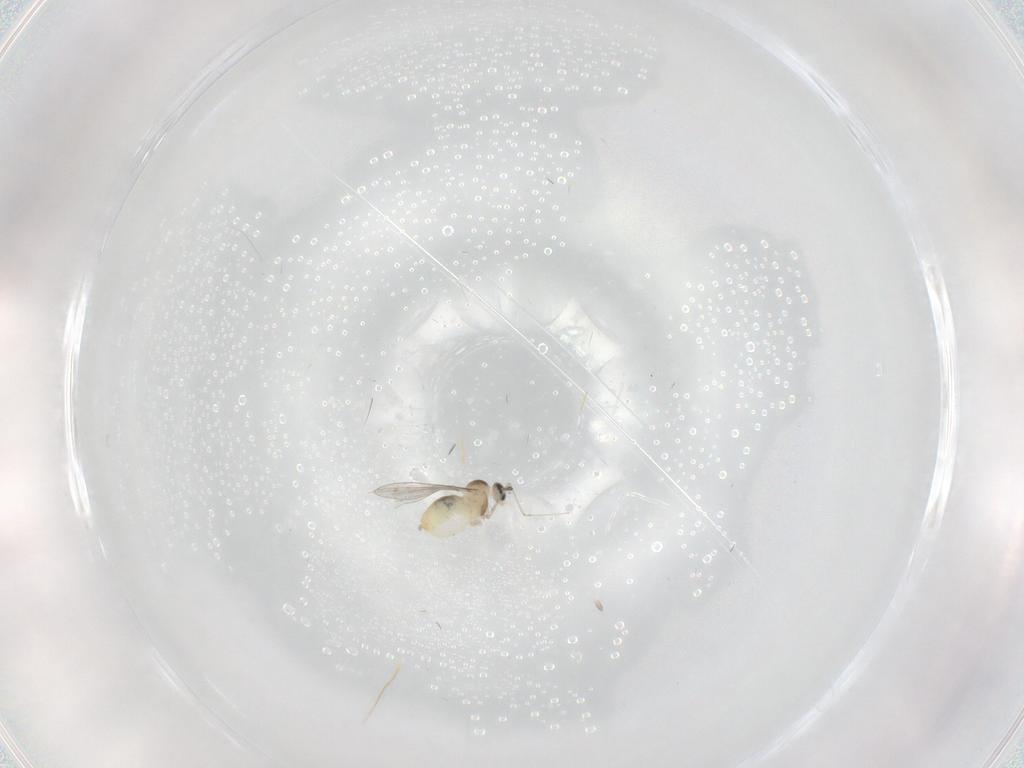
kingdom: Animalia
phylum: Arthropoda
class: Insecta
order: Diptera
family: Cecidomyiidae
